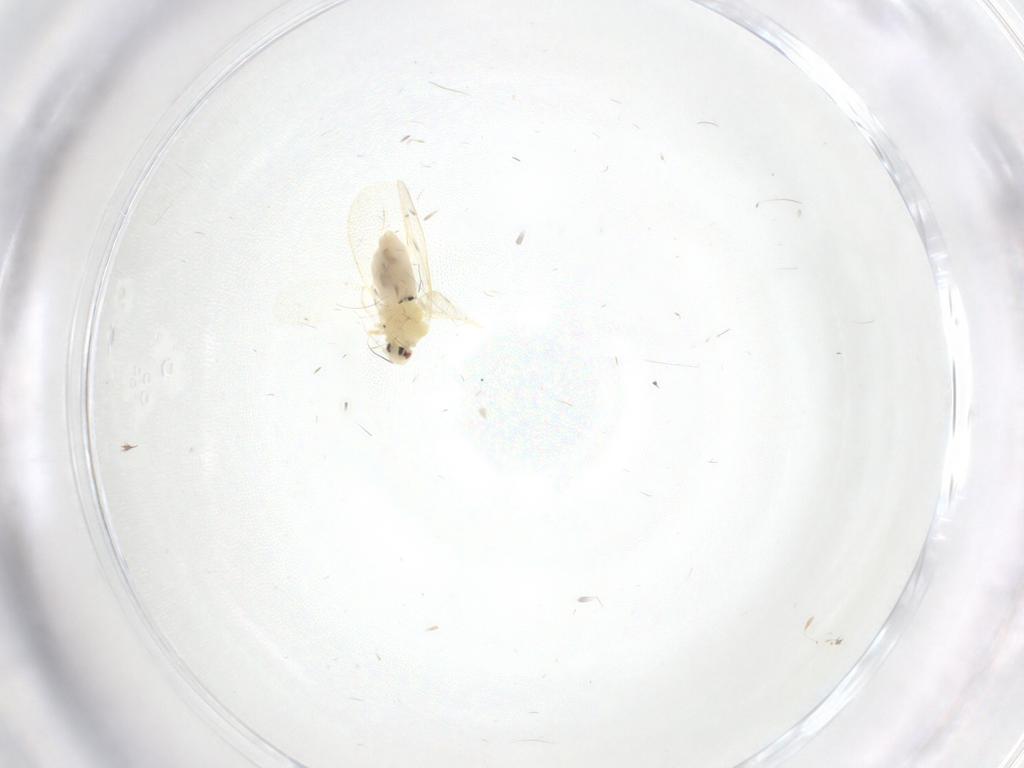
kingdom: Animalia
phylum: Arthropoda
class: Insecta
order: Hemiptera
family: Aleyrodidae
